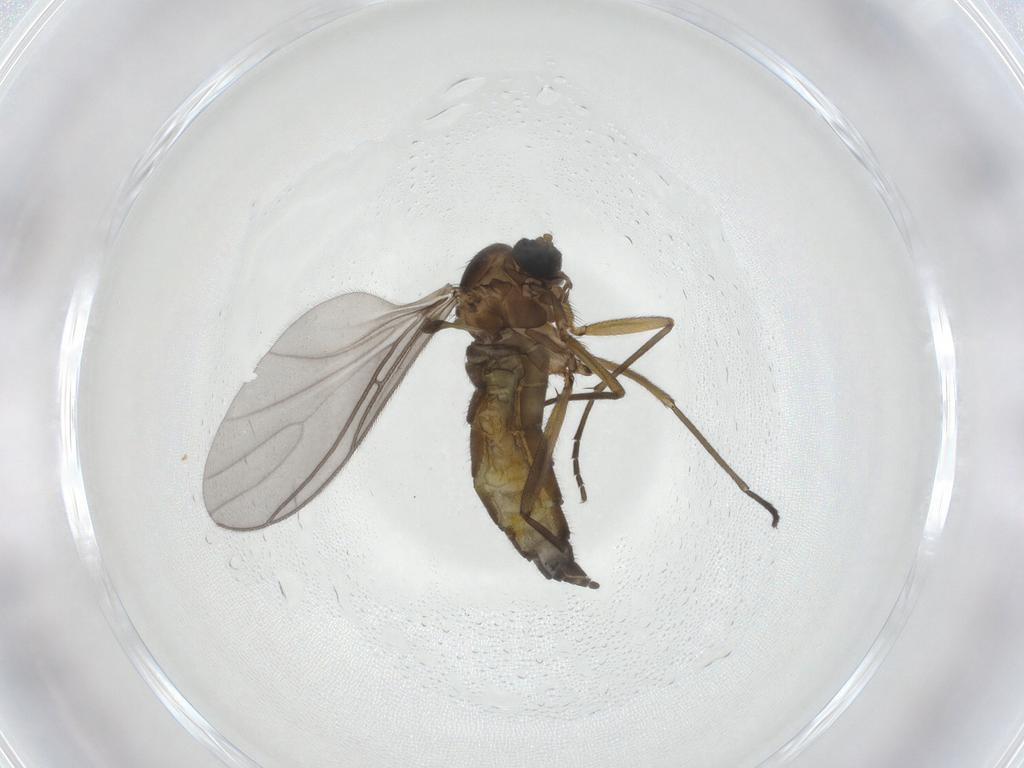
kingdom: Animalia
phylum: Arthropoda
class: Insecta
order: Diptera
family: Sciaridae
